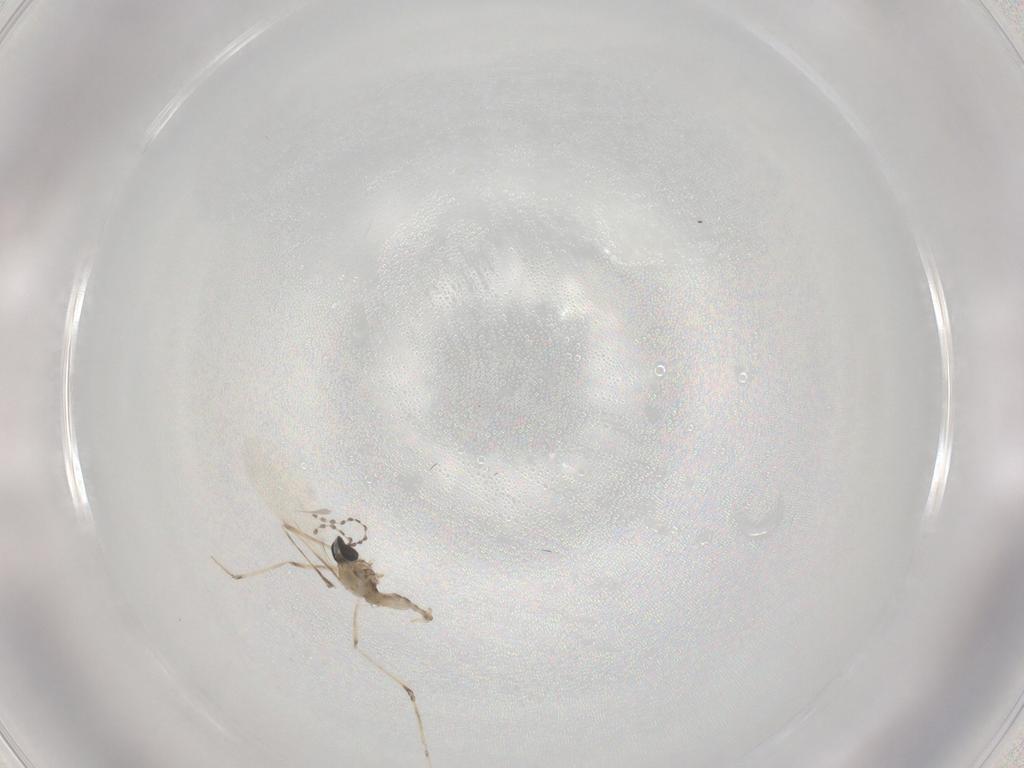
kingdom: Animalia
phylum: Arthropoda
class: Insecta
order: Diptera
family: Cecidomyiidae
